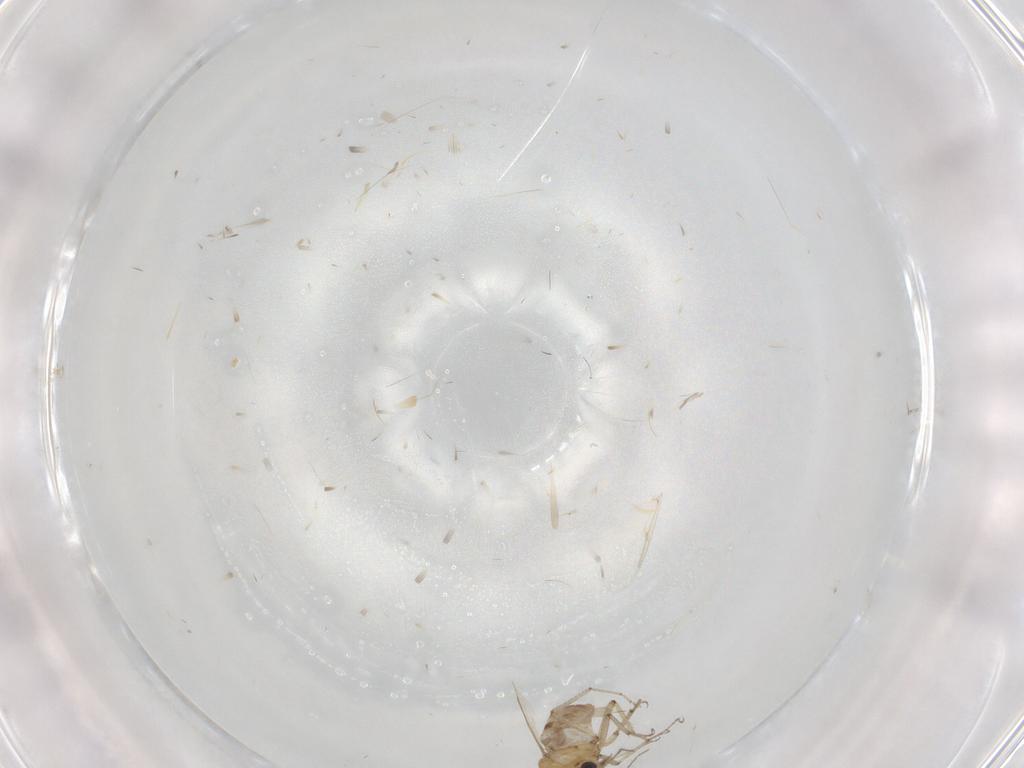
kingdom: Animalia
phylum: Arthropoda
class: Insecta
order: Diptera
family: Ceratopogonidae
